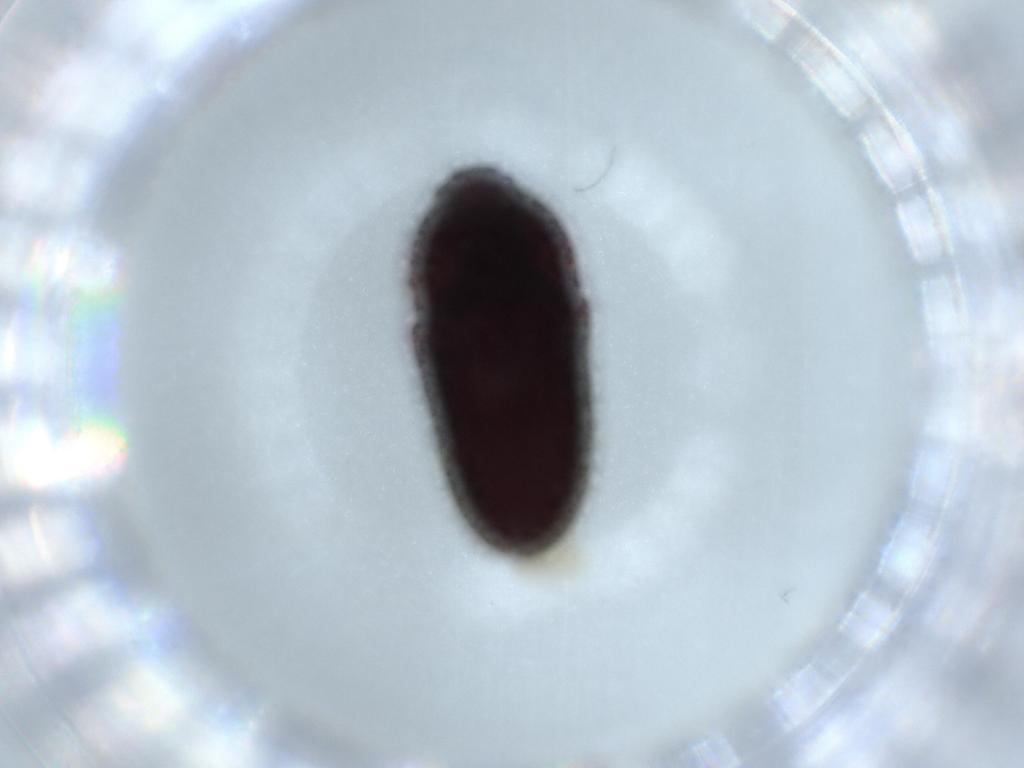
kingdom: Animalia
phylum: Arthropoda
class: Insecta
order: Coleoptera
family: Throscidae
